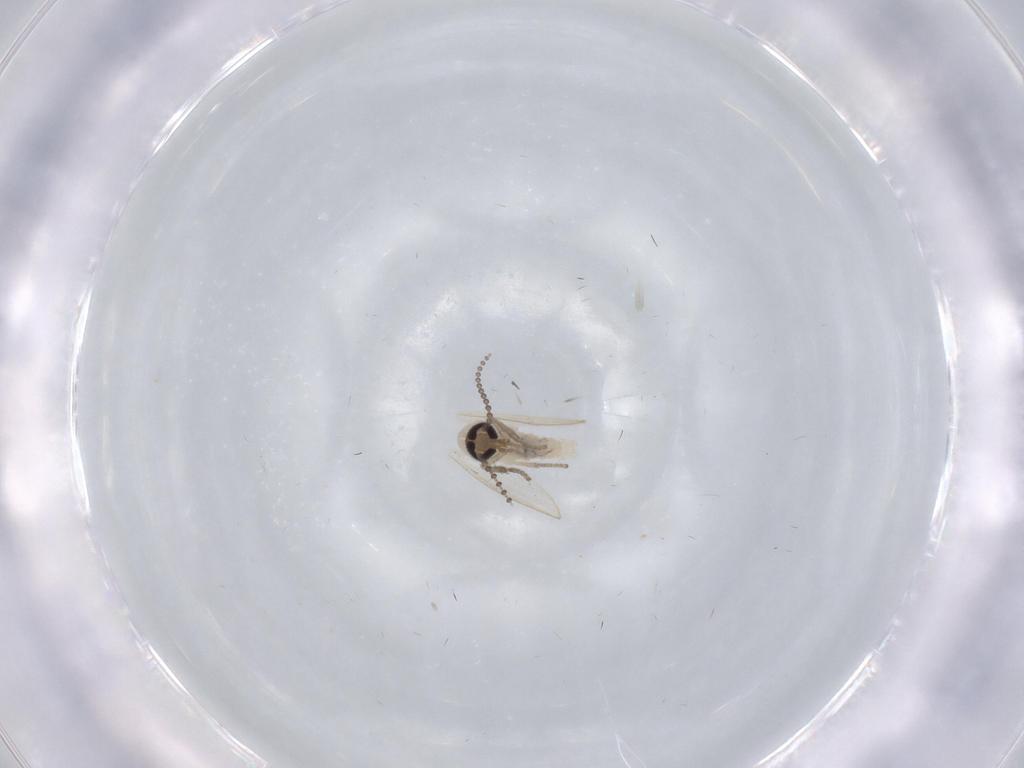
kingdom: Animalia
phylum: Arthropoda
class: Insecta
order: Diptera
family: Psychodidae
